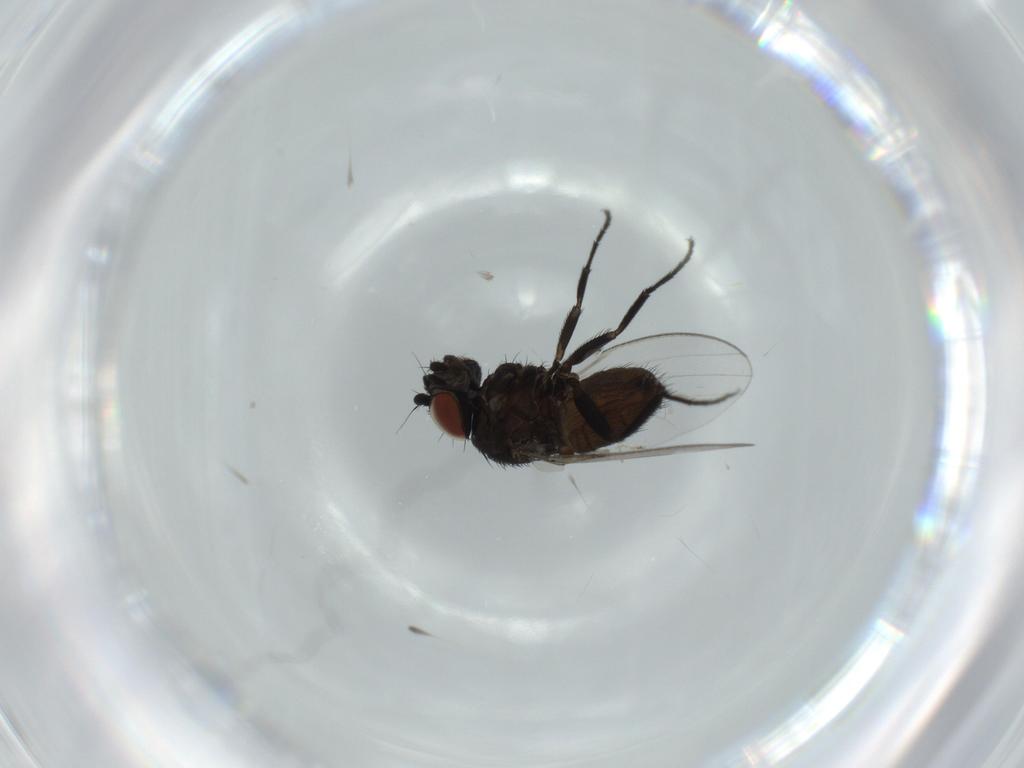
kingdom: Animalia
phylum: Arthropoda
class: Insecta
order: Diptera
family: Milichiidae
